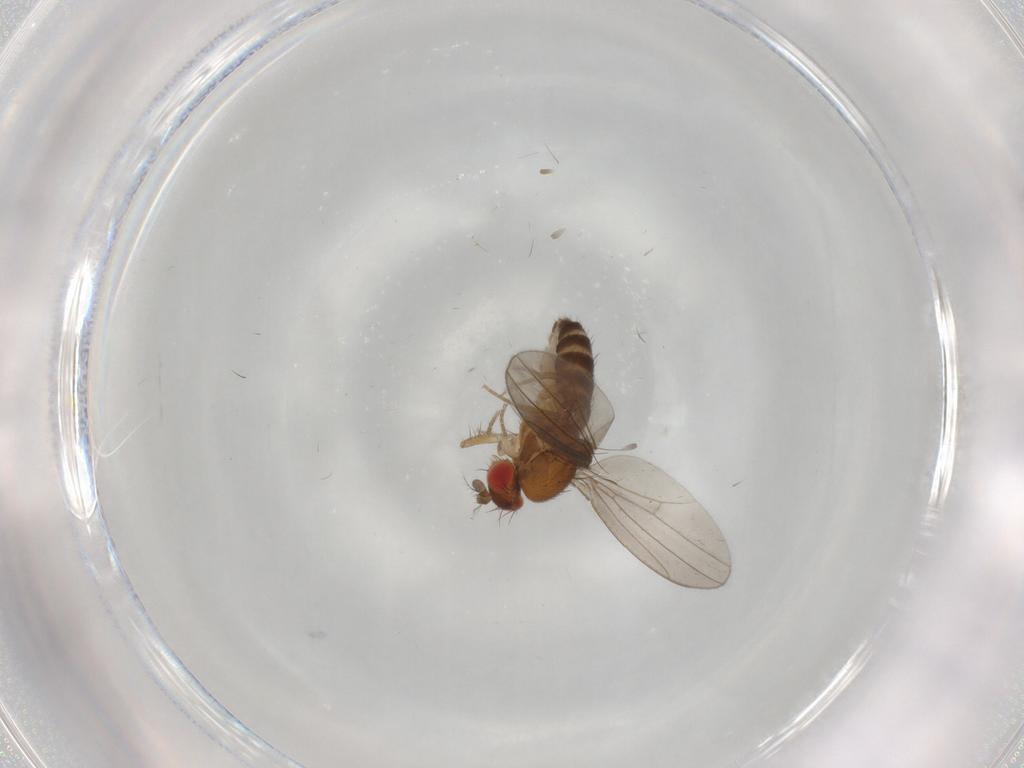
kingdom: Animalia
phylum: Arthropoda
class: Insecta
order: Diptera
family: Drosophilidae
